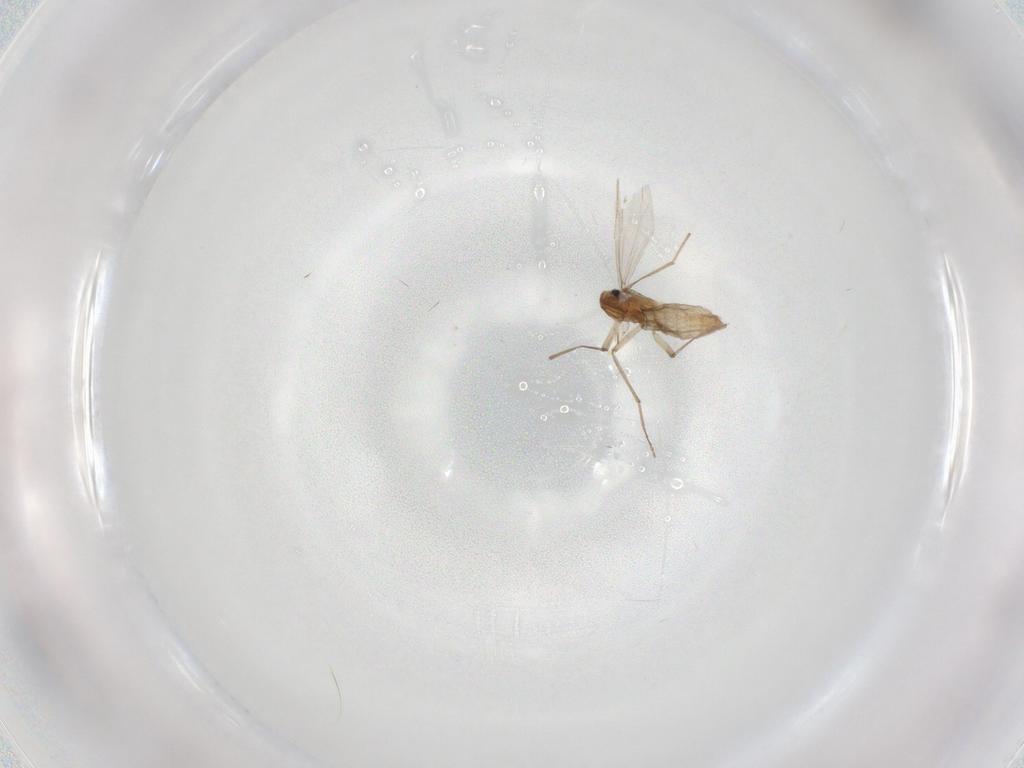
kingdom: Animalia
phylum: Arthropoda
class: Insecta
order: Diptera
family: Chironomidae
